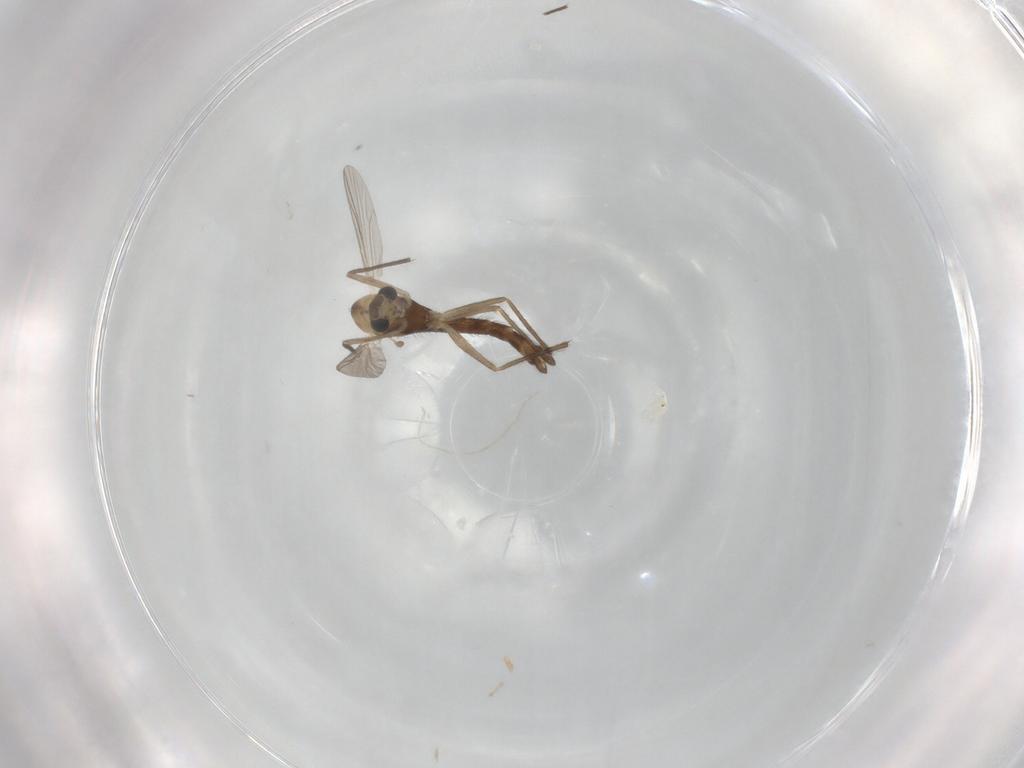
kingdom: Animalia
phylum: Arthropoda
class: Insecta
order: Diptera
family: Chironomidae
